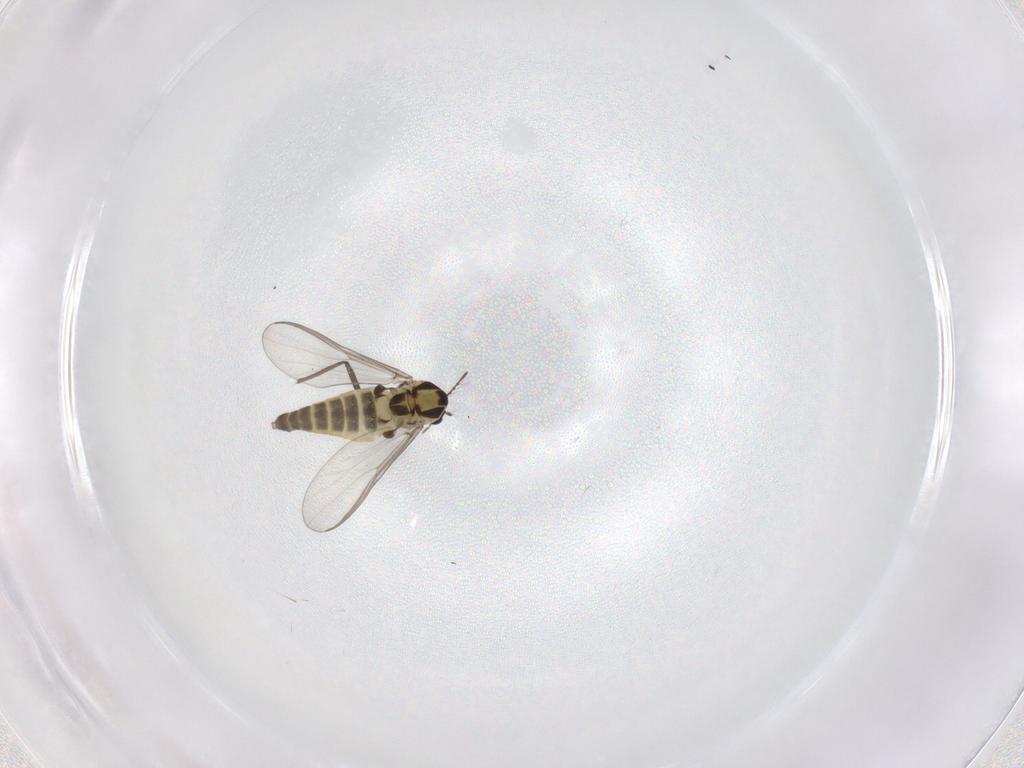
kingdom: Animalia
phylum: Arthropoda
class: Insecta
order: Diptera
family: Chironomidae
